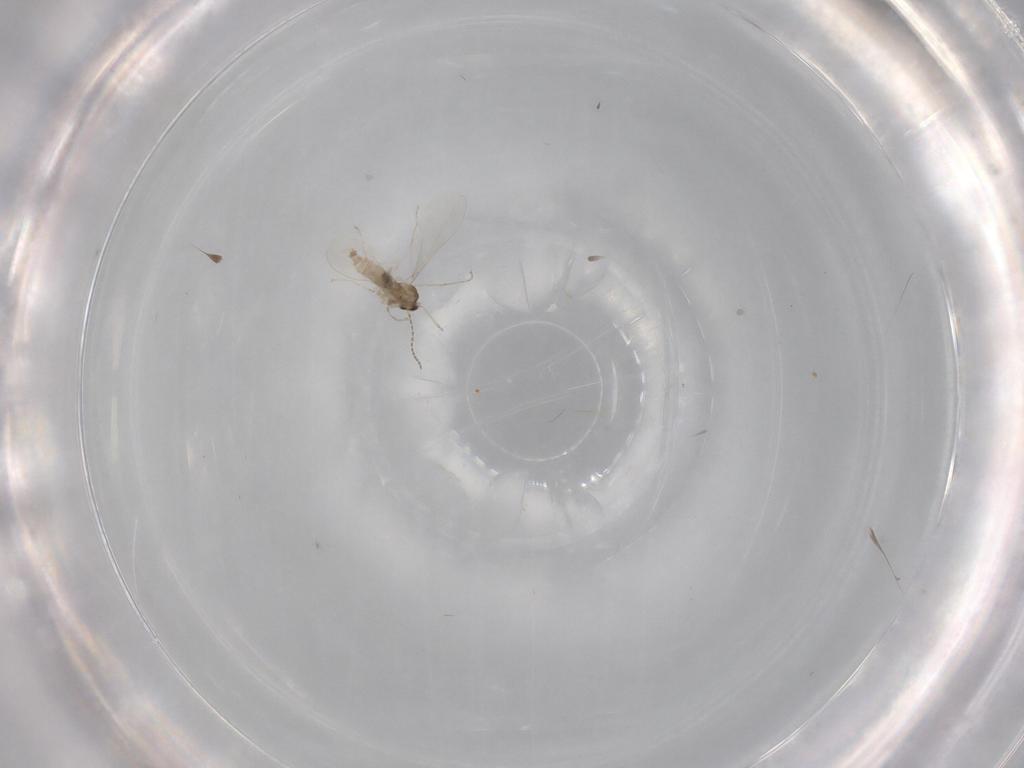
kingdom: Animalia
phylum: Arthropoda
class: Insecta
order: Diptera
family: Cecidomyiidae
